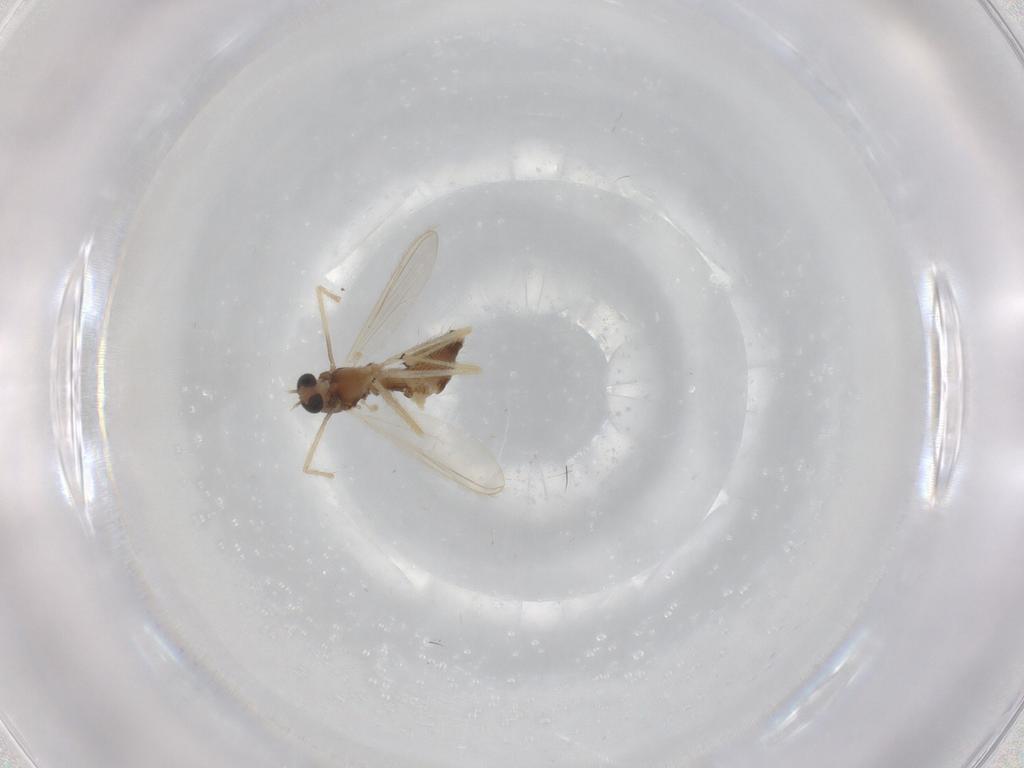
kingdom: Animalia
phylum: Arthropoda
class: Insecta
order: Diptera
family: Chironomidae
